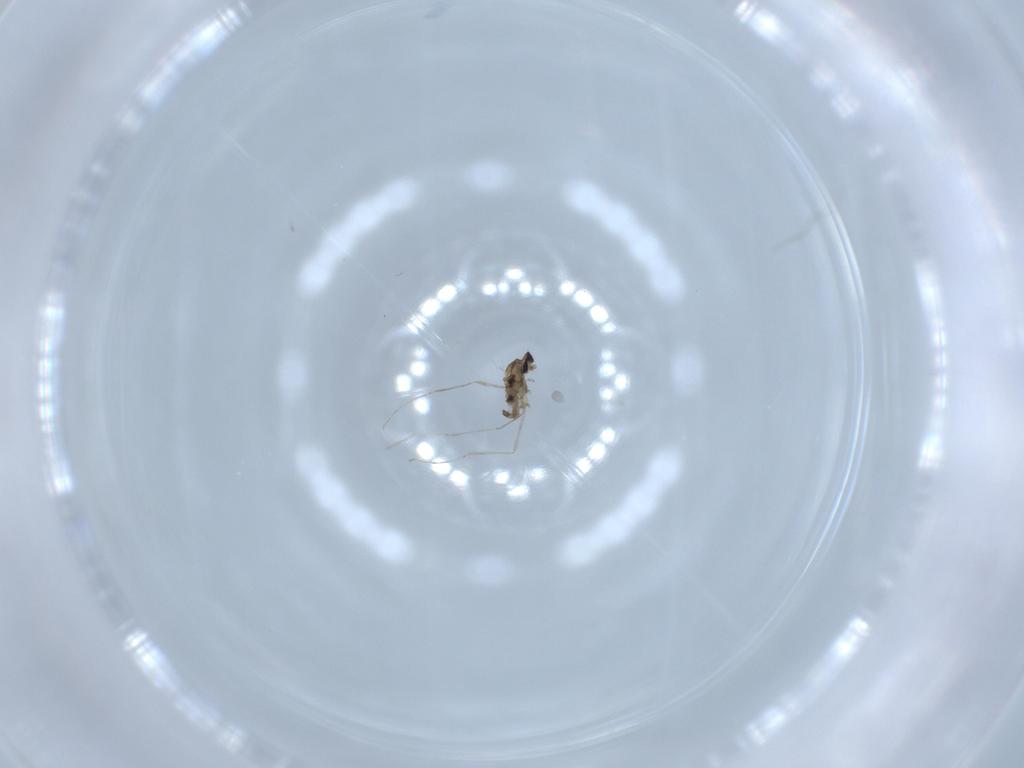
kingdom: Animalia
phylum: Arthropoda
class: Insecta
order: Diptera
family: Cecidomyiidae
